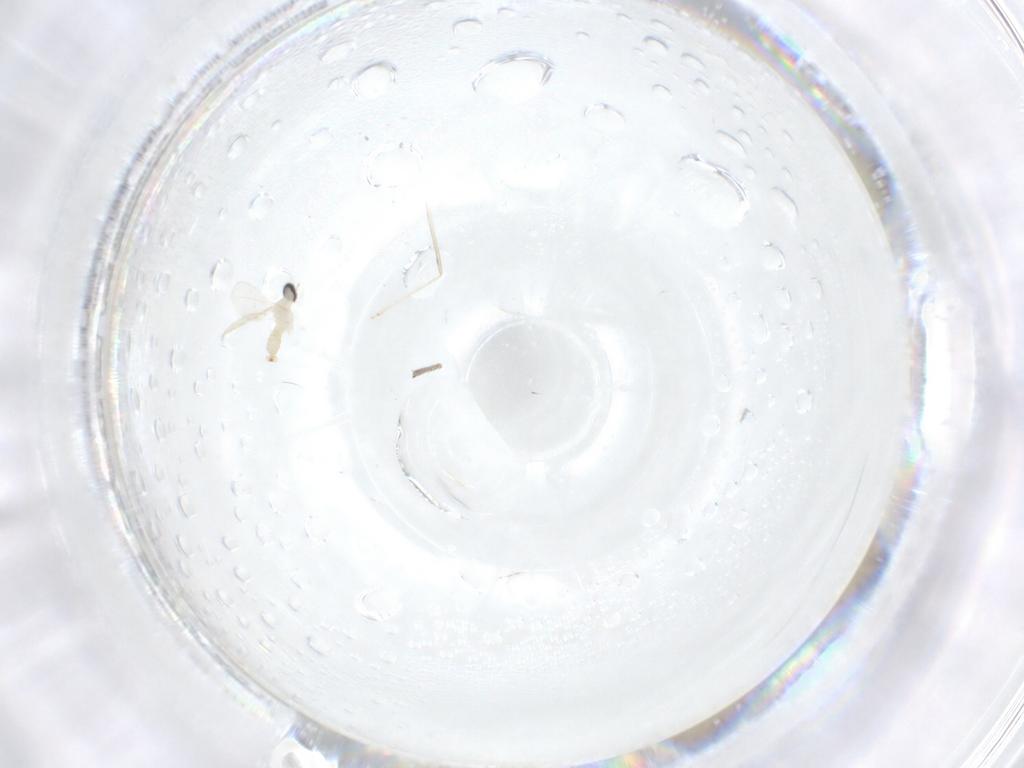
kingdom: Animalia
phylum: Arthropoda
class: Insecta
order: Diptera
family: Cecidomyiidae
